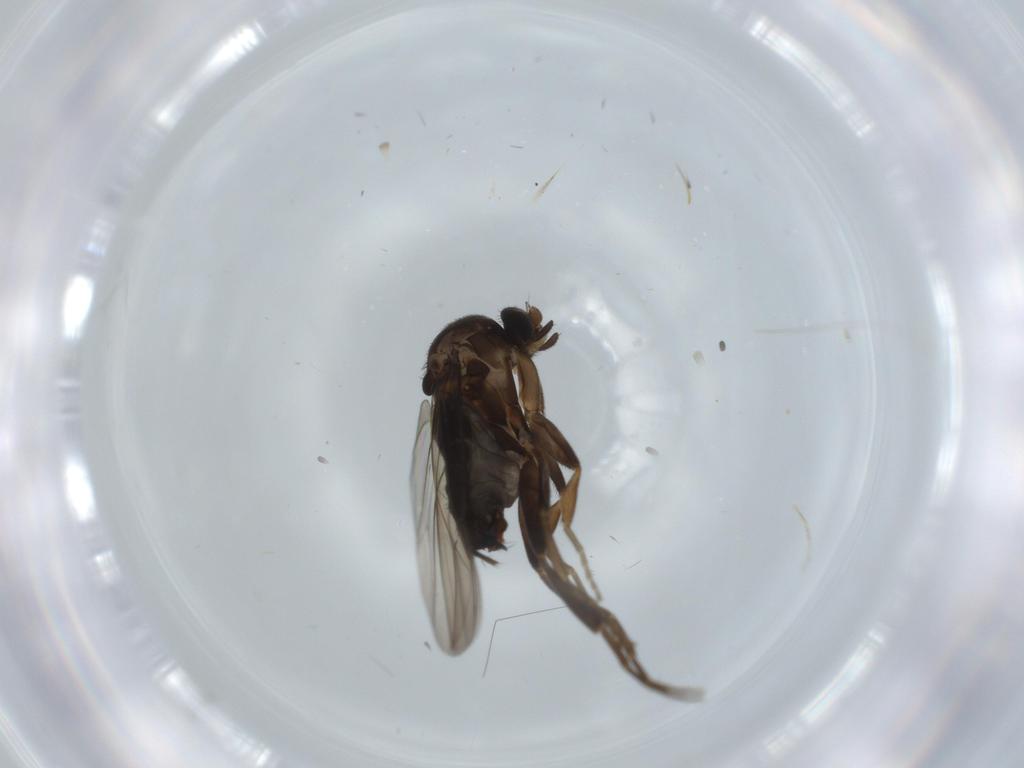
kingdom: Animalia
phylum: Arthropoda
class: Insecta
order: Diptera
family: Sciaridae
